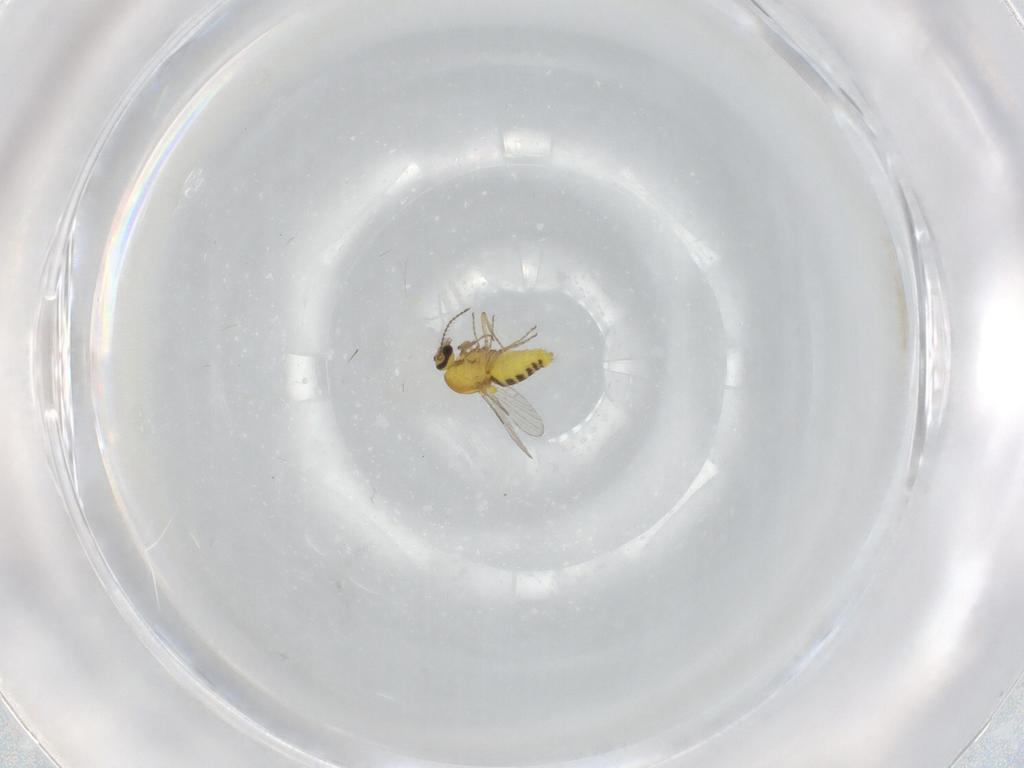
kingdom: Animalia
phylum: Arthropoda
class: Insecta
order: Diptera
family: Ceratopogonidae
